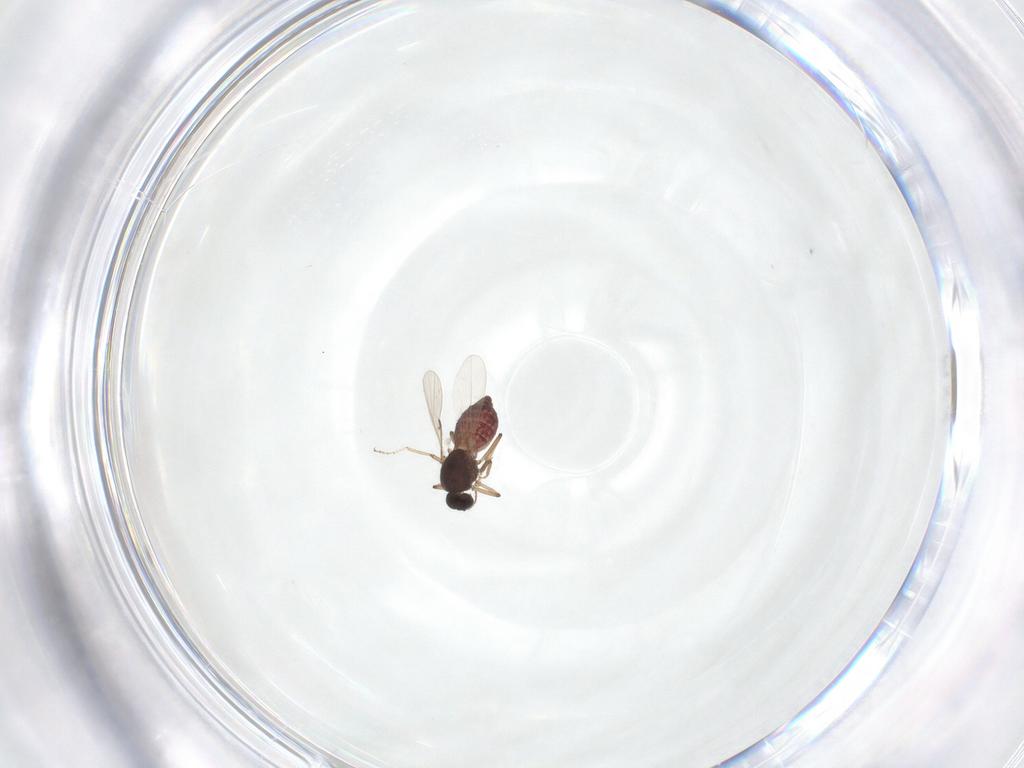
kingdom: Animalia
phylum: Arthropoda
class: Insecta
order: Diptera
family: Ceratopogonidae
